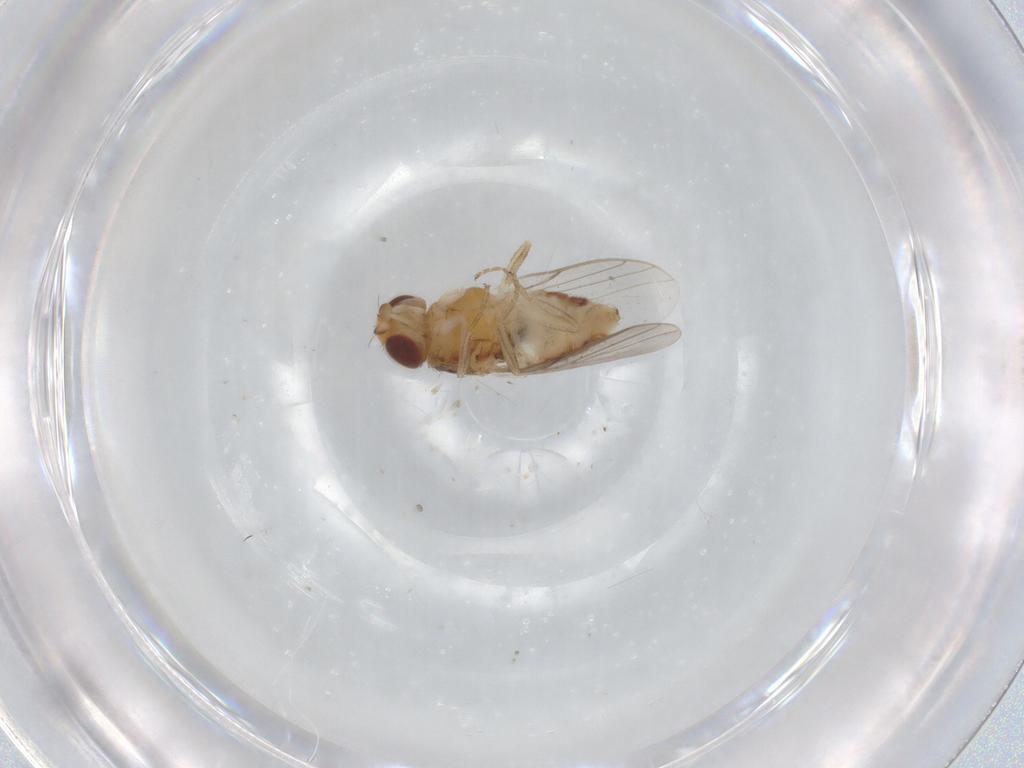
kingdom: Animalia
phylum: Arthropoda
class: Insecta
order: Diptera
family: Chloropidae
